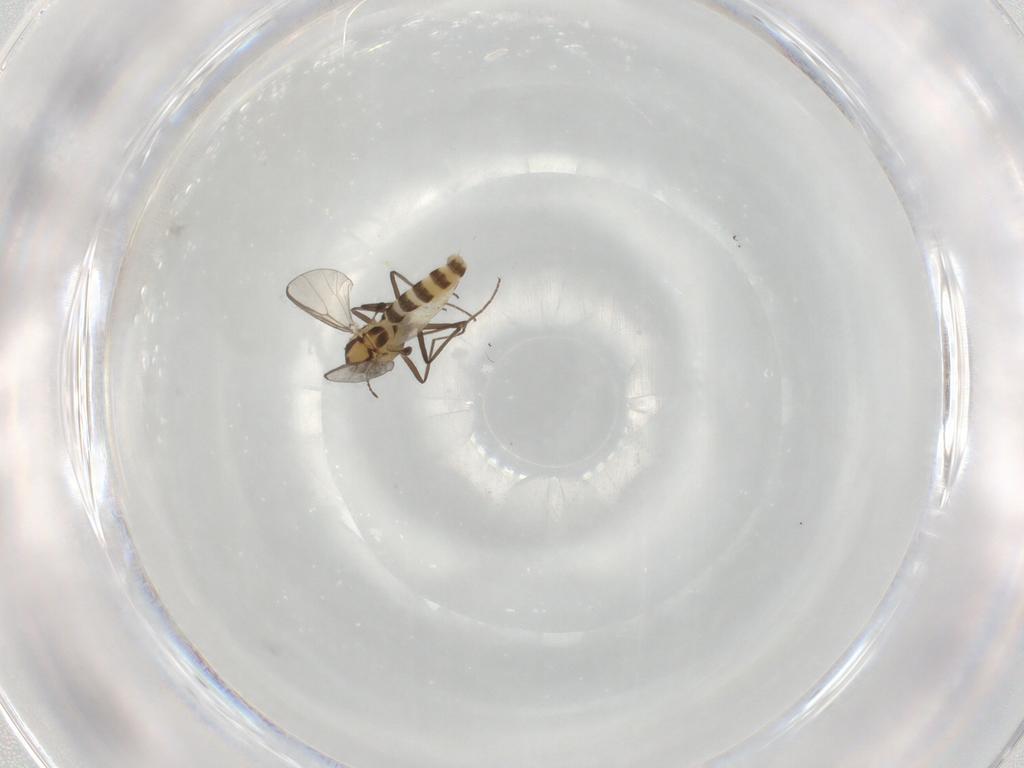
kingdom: Animalia
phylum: Arthropoda
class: Insecta
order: Diptera
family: Chironomidae
